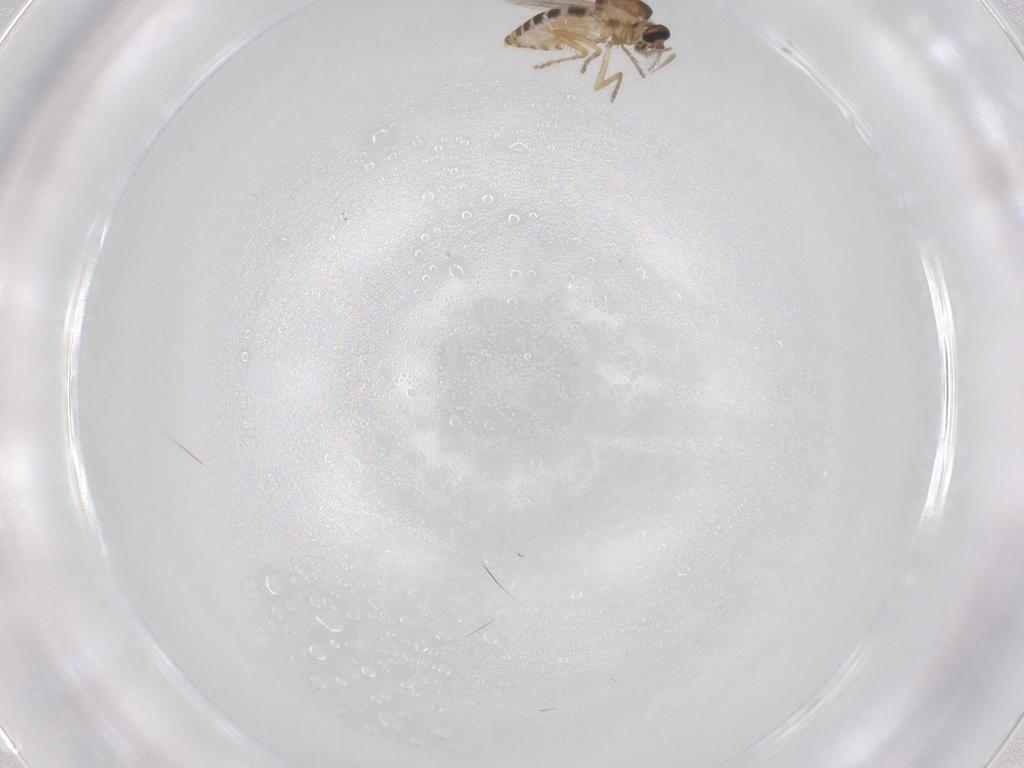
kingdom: Animalia
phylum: Arthropoda
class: Insecta
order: Diptera
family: Ceratopogonidae
